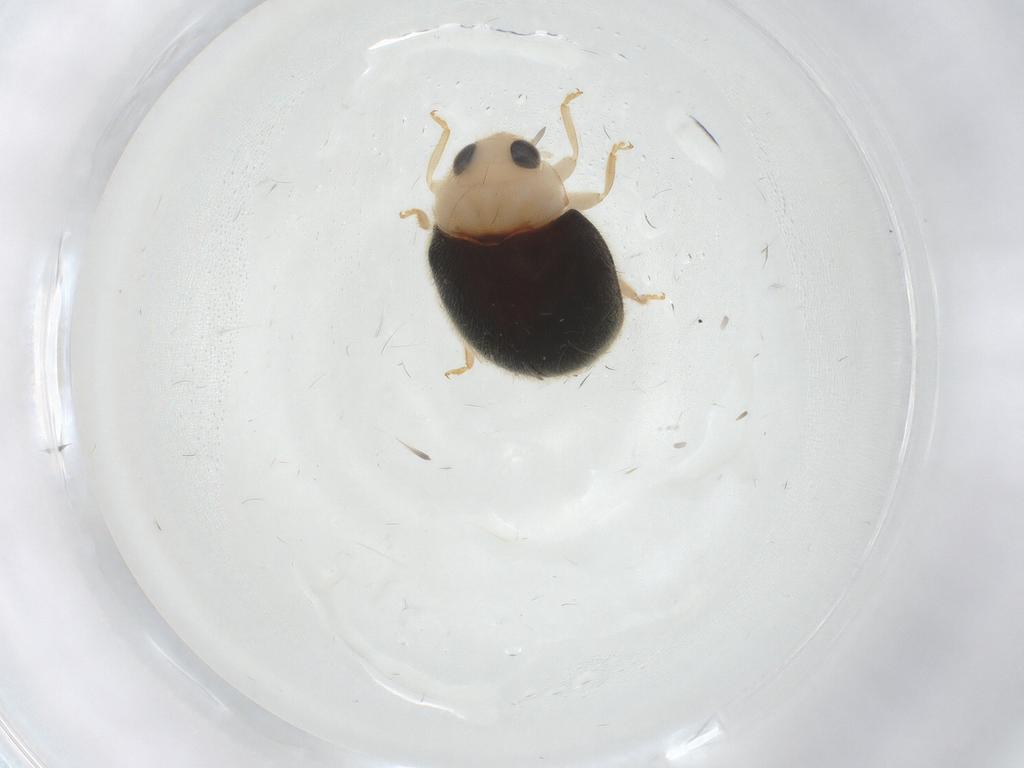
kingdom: Animalia
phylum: Arthropoda
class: Insecta
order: Coleoptera
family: Coccinellidae
